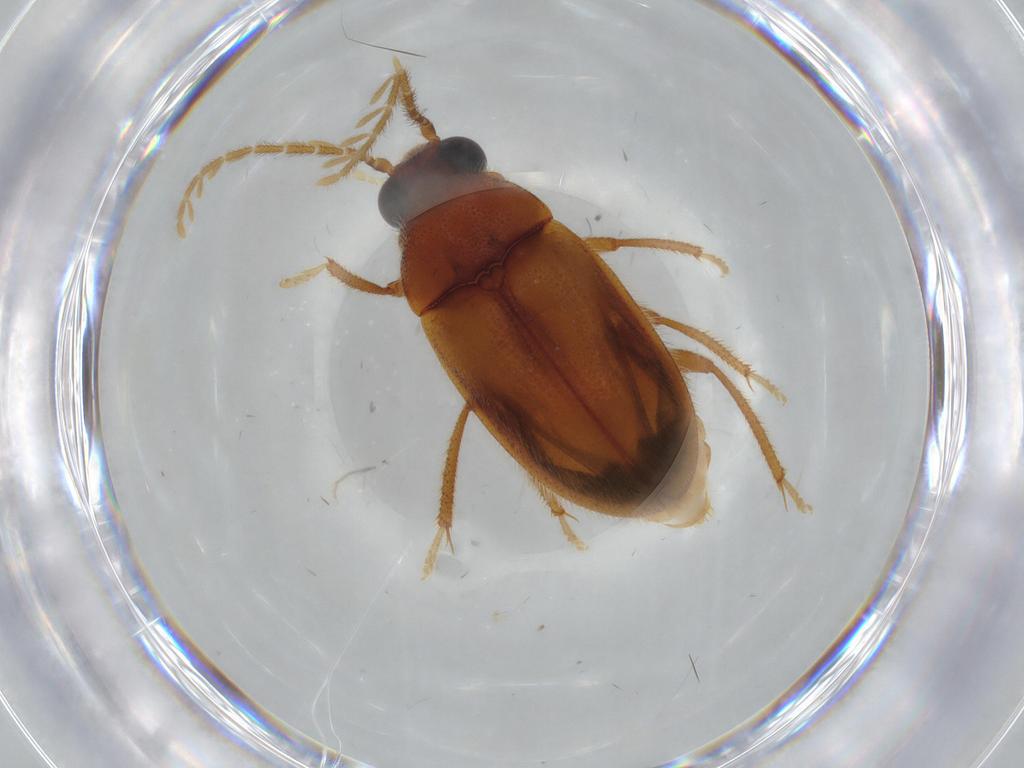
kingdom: Animalia
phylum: Arthropoda
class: Insecta
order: Coleoptera
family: Ptilodactylidae
